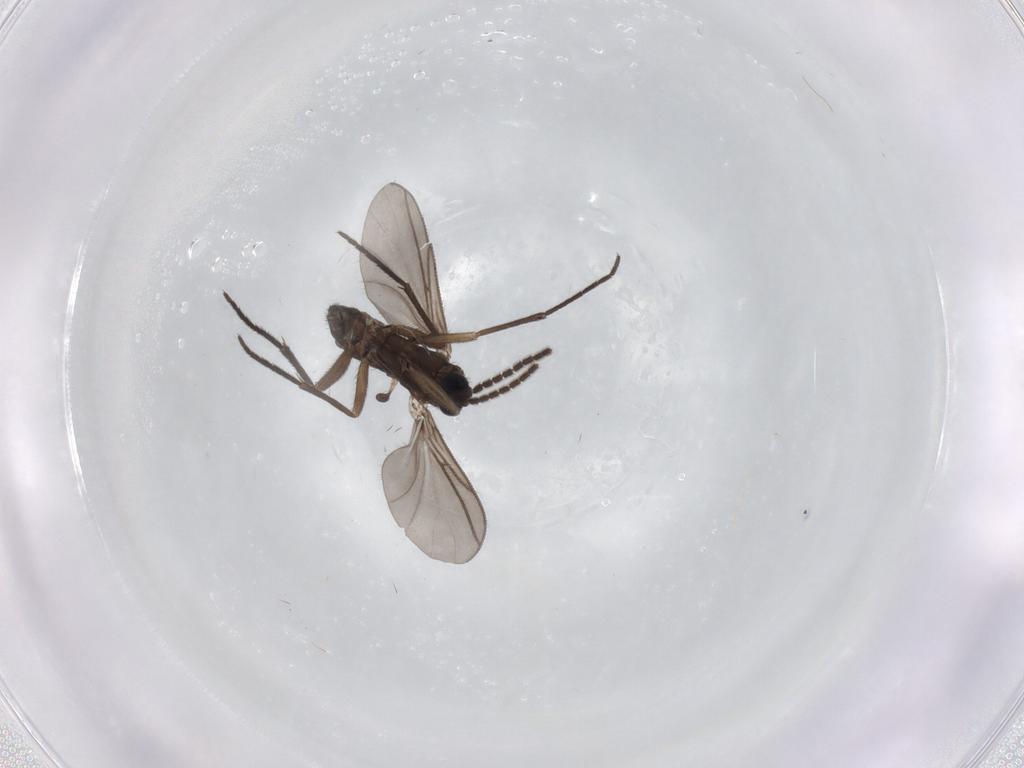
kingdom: Animalia
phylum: Arthropoda
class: Insecta
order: Diptera
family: Sciaridae
